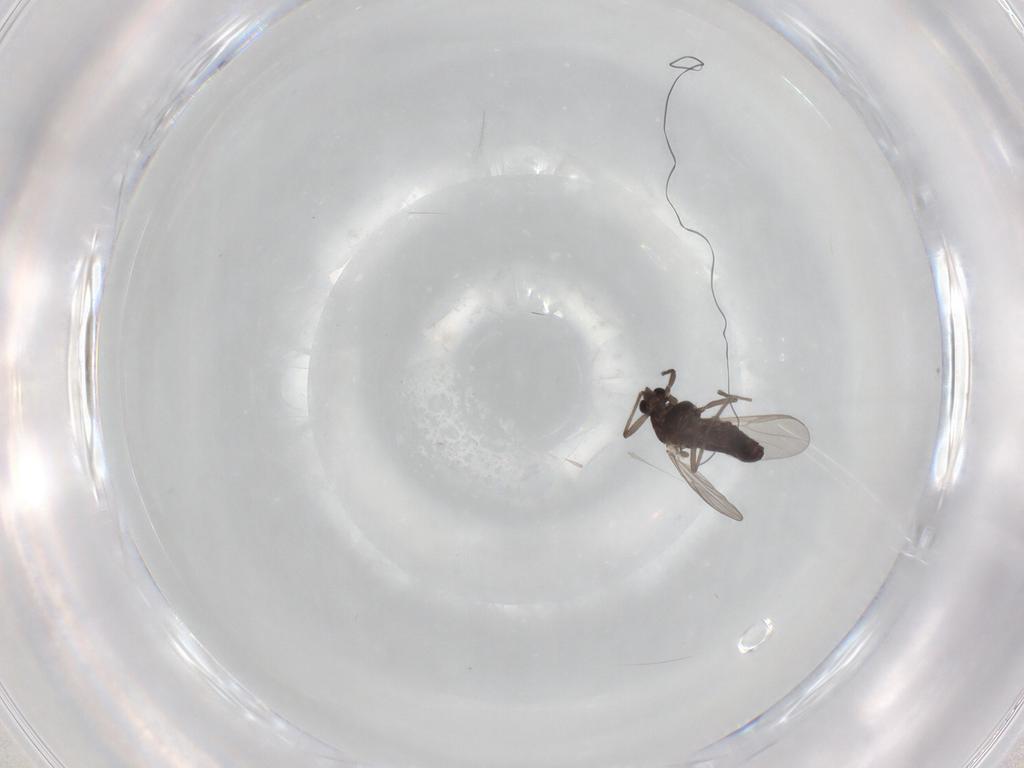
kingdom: Animalia
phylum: Arthropoda
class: Insecta
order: Diptera
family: Chironomidae
